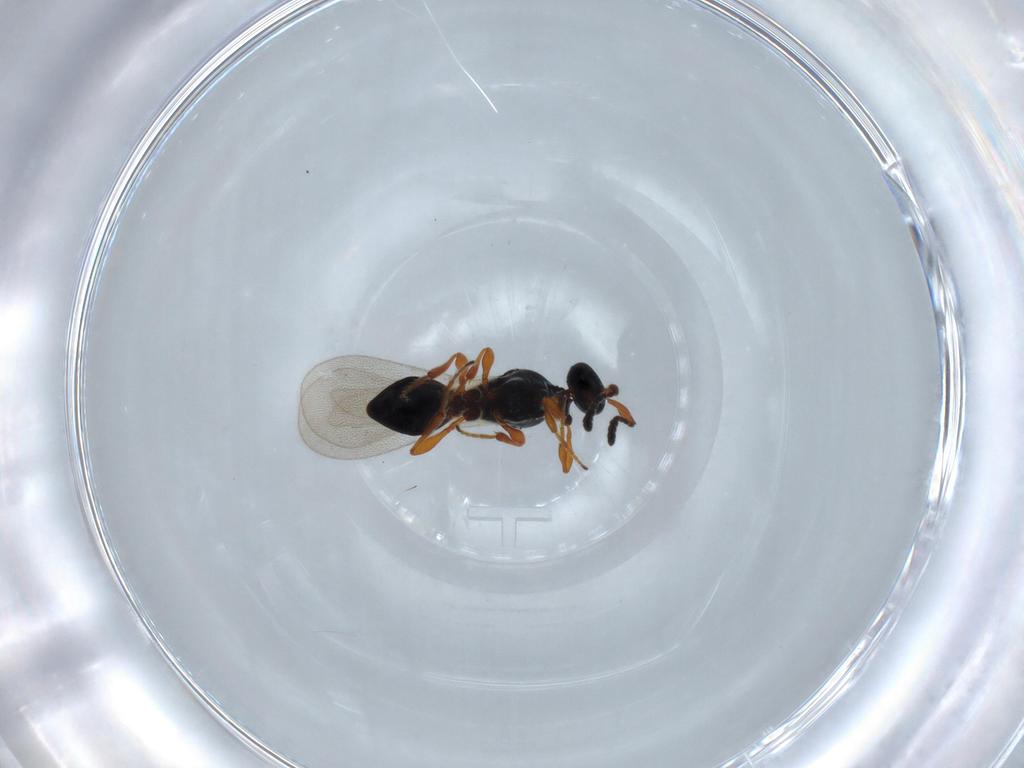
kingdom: Animalia
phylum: Arthropoda
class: Insecta
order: Hymenoptera
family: Platygastridae
